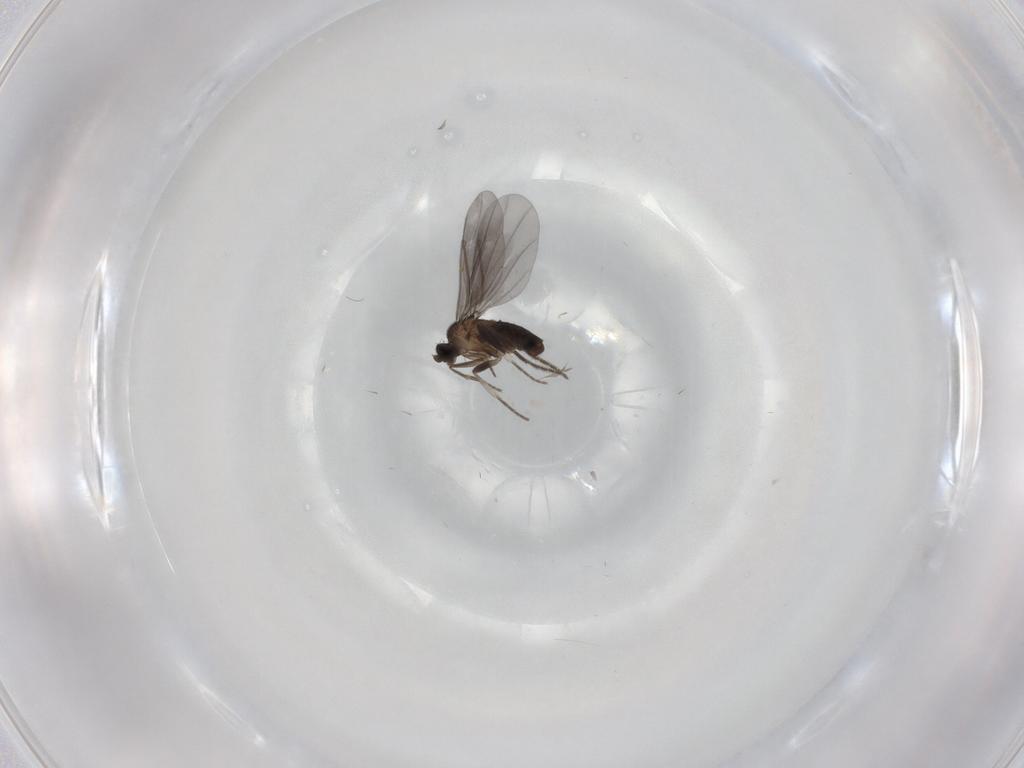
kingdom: Animalia
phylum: Arthropoda
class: Insecta
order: Diptera
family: Phoridae
